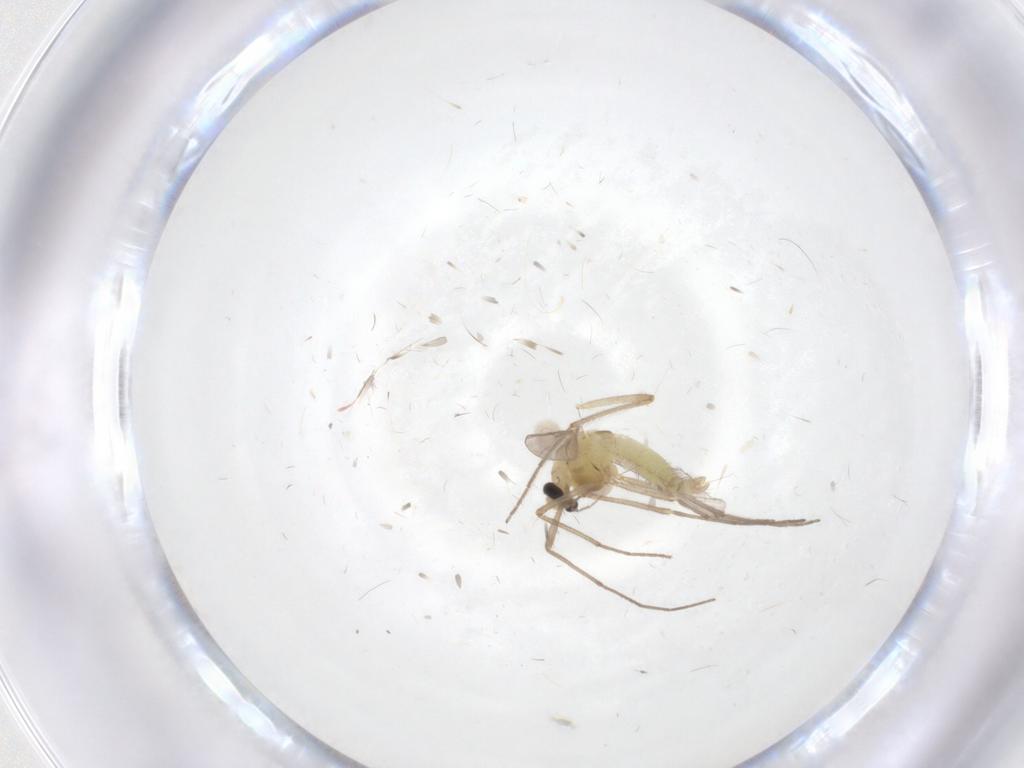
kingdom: Animalia
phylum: Arthropoda
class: Insecta
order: Diptera
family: Chironomidae
